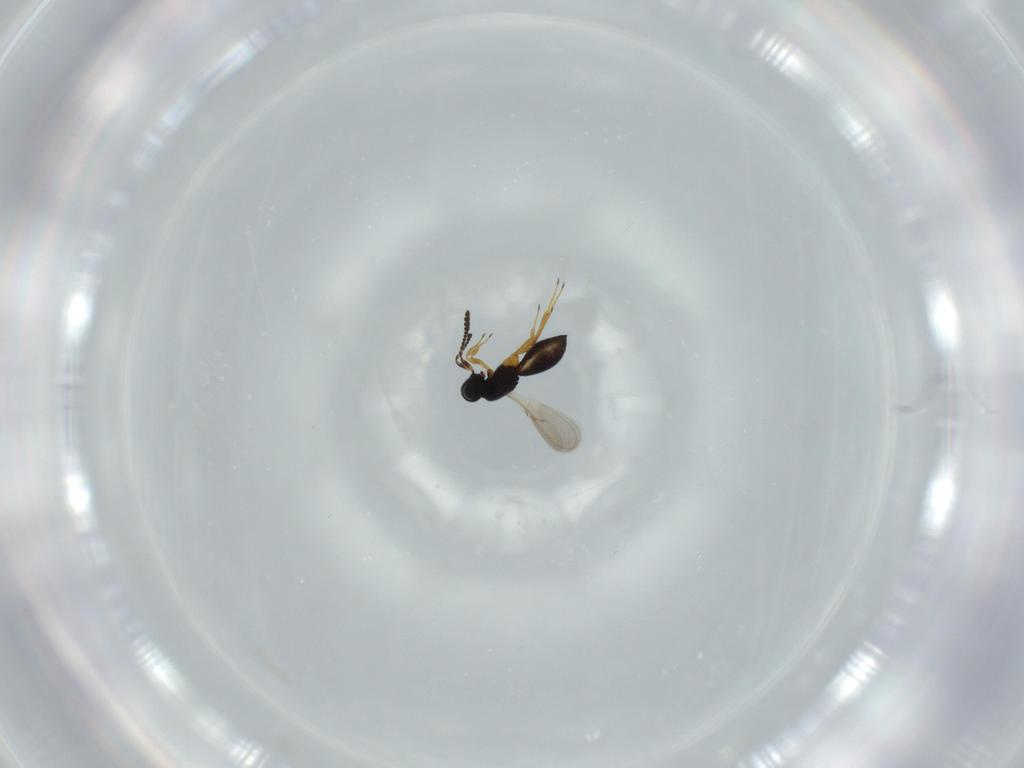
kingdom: Animalia
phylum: Arthropoda
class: Insecta
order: Hymenoptera
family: Scelionidae
